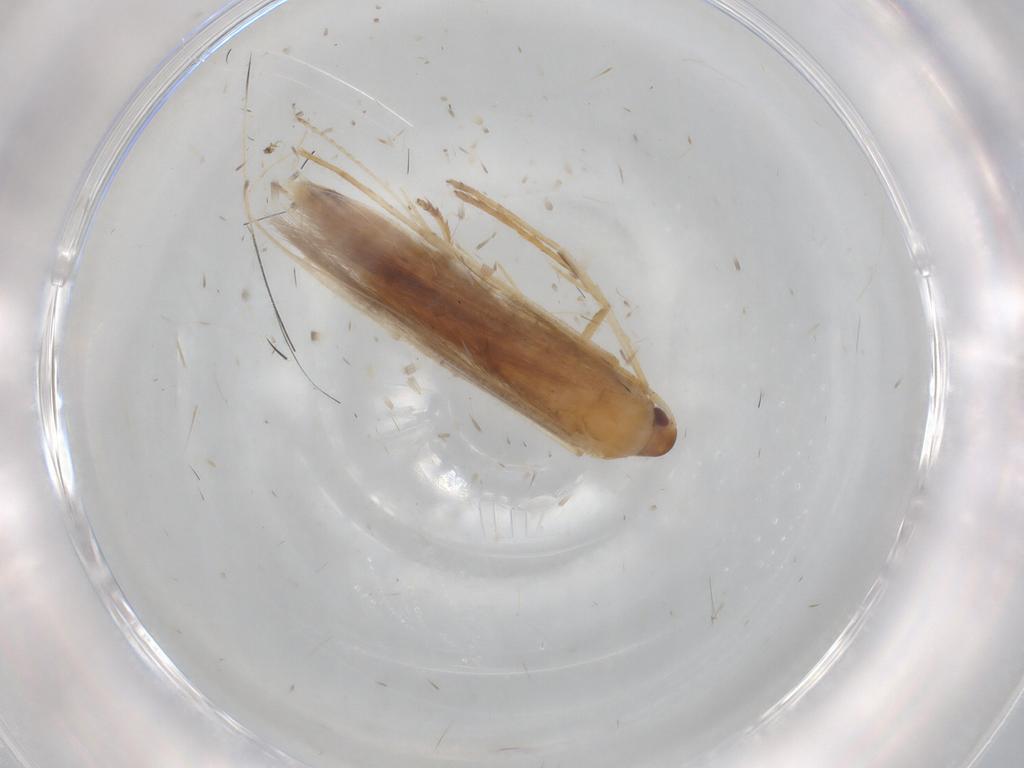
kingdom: Animalia
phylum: Arthropoda
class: Insecta
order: Lepidoptera
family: Cosmopterigidae
